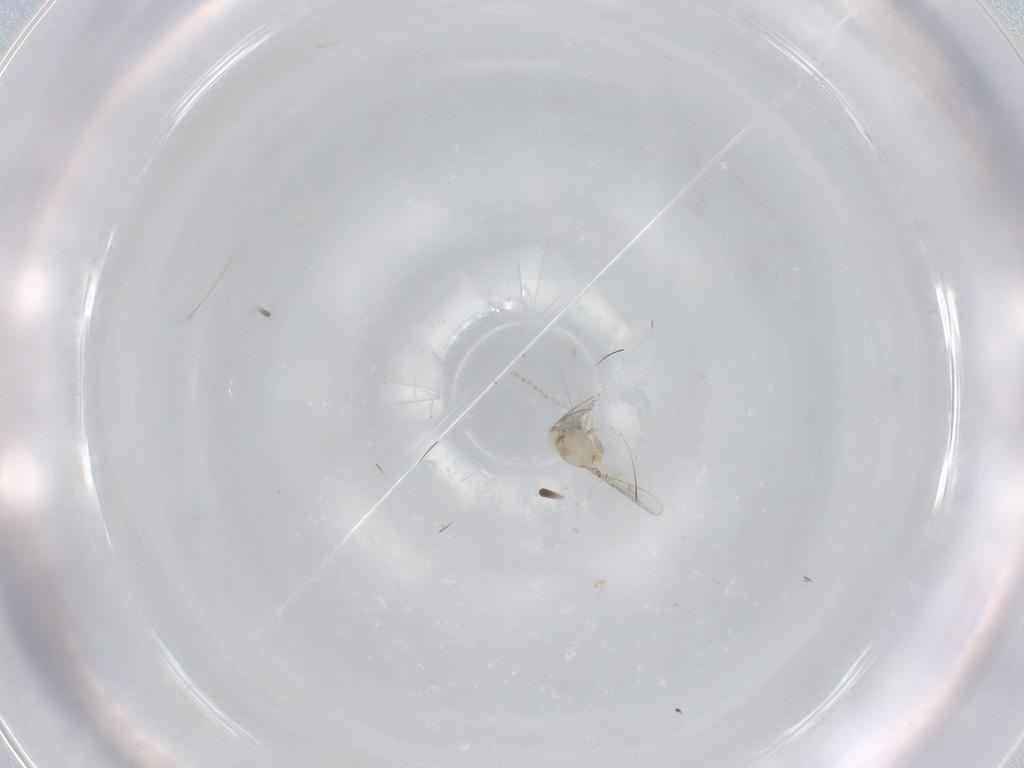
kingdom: Animalia
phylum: Arthropoda
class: Insecta
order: Diptera
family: Cecidomyiidae
